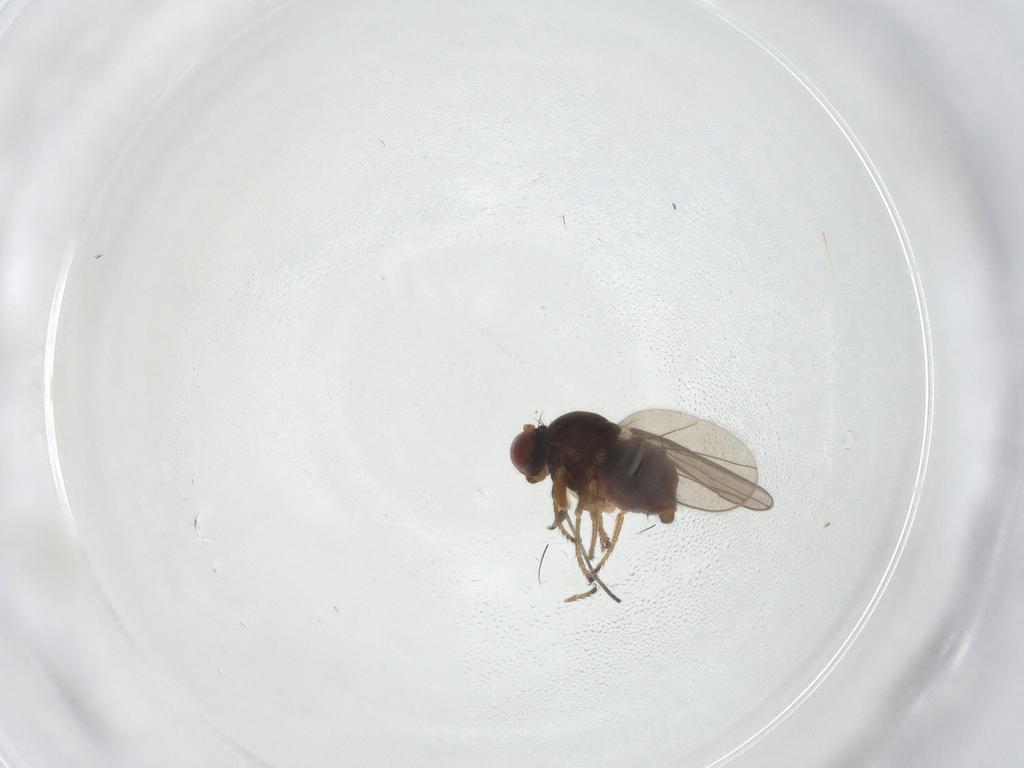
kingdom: Animalia
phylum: Arthropoda
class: Insecta
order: Diptera
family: Ephydridae
